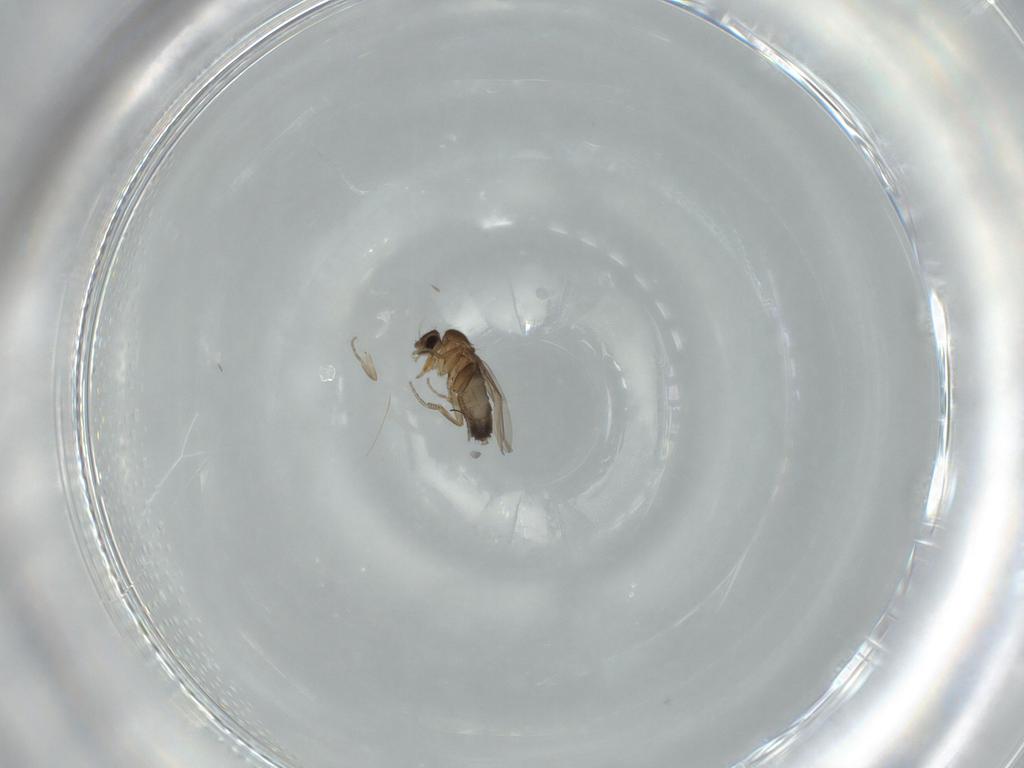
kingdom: Animalia
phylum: Arthropoda
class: Insecta
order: Diptera
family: Phoridae
